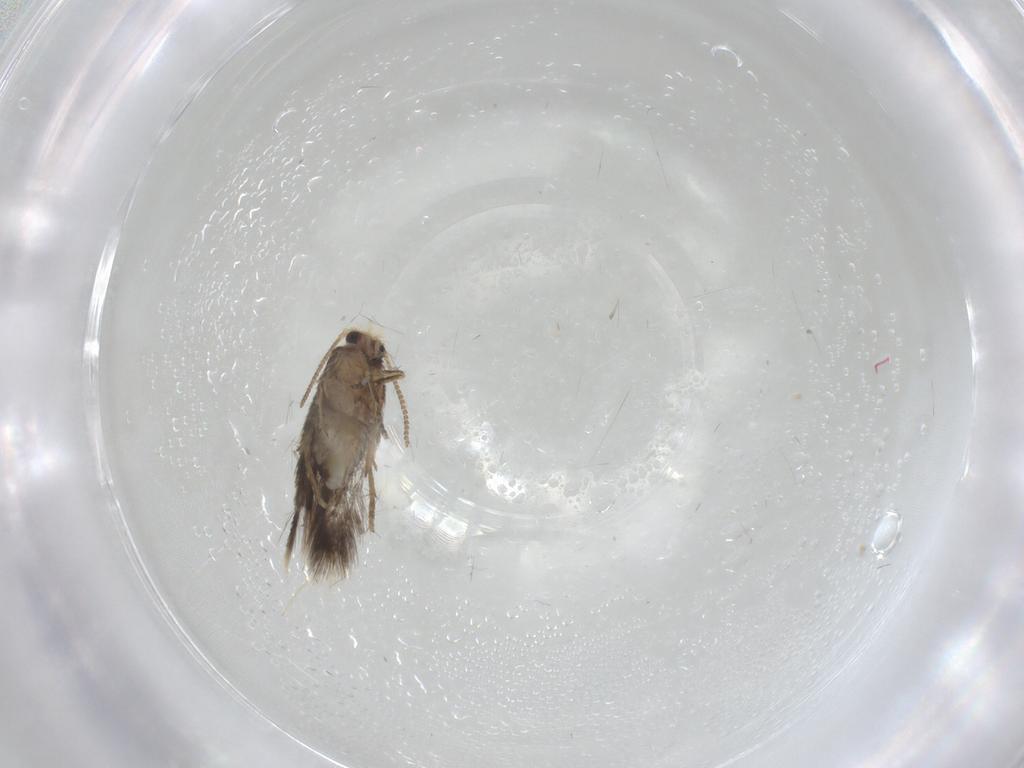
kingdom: Animalia
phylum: Arthropoda
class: Insecta
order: Lepidoptera
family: Nepticulidae
